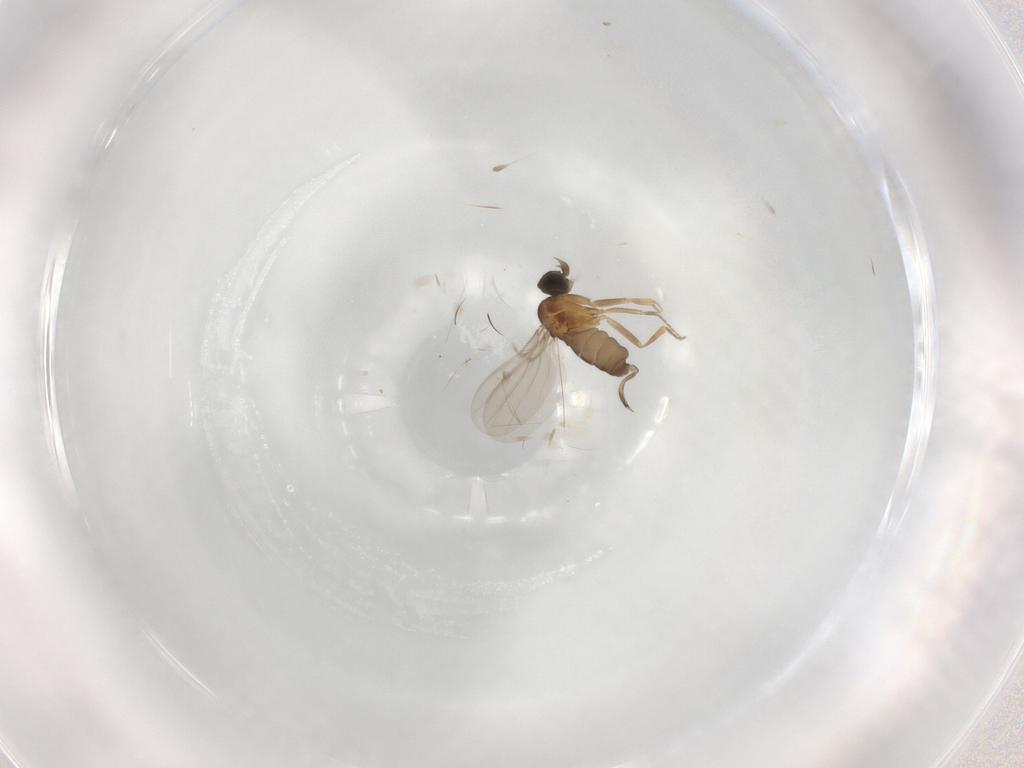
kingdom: Animalia
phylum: Arthropoda
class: Insecta
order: Diptera
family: Phoridae
